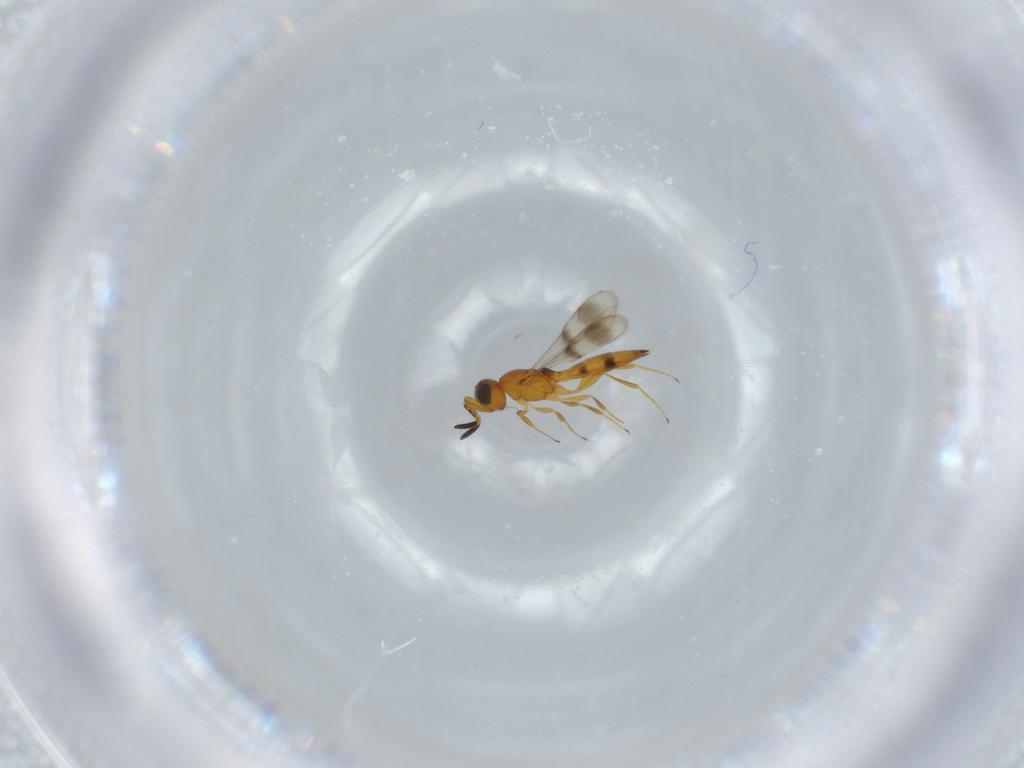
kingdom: Animalia
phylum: Arthropoda
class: Insecta
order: Hymenoptera
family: Scelionidae
